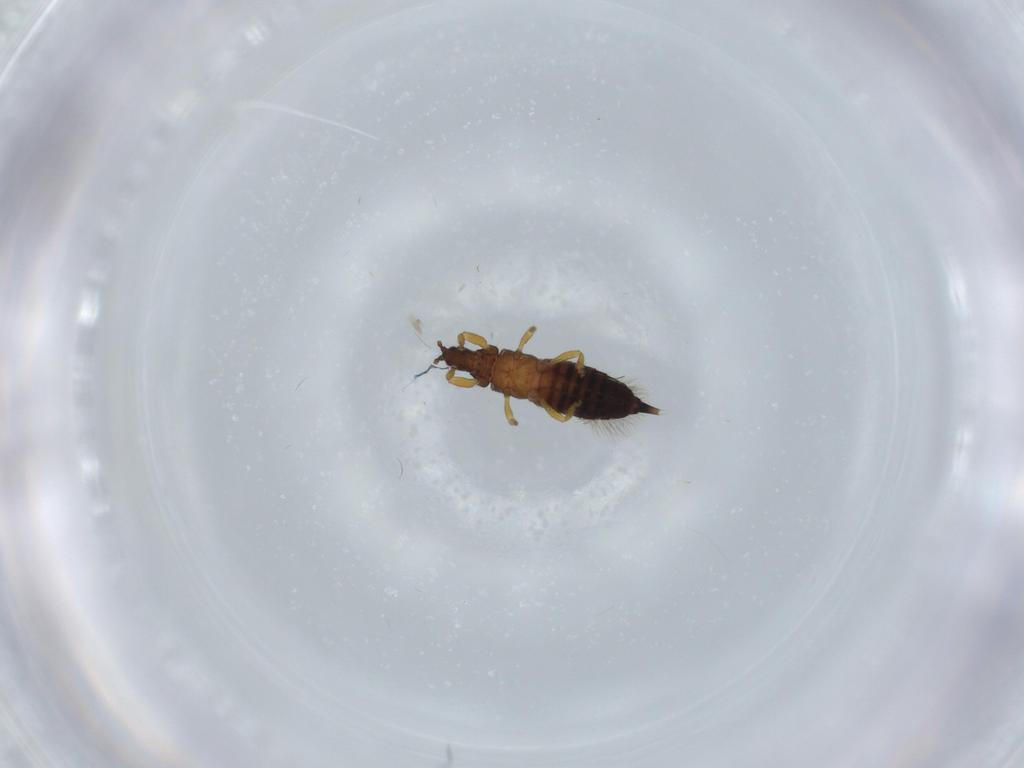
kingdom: Animalia
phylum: Arthropoda
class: Insecta
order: Thysanoptera
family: Phlaeothripidae
